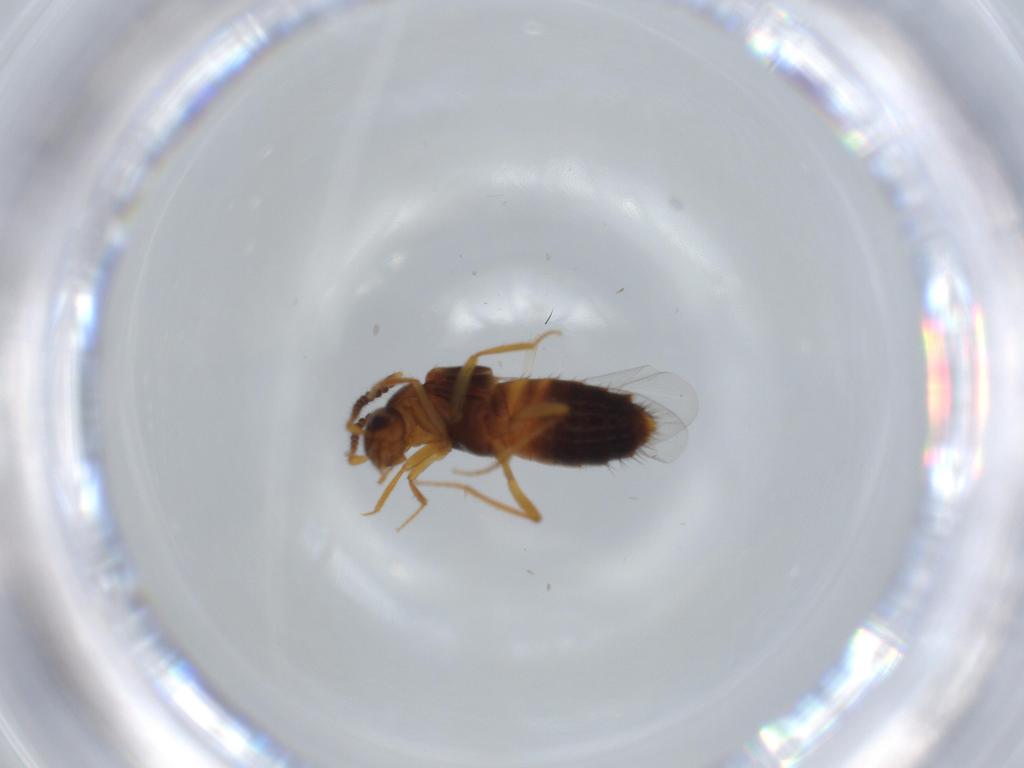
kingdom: Animalia
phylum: Arthropoda
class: Insecta
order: Coleoptera
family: Staphylinidae
